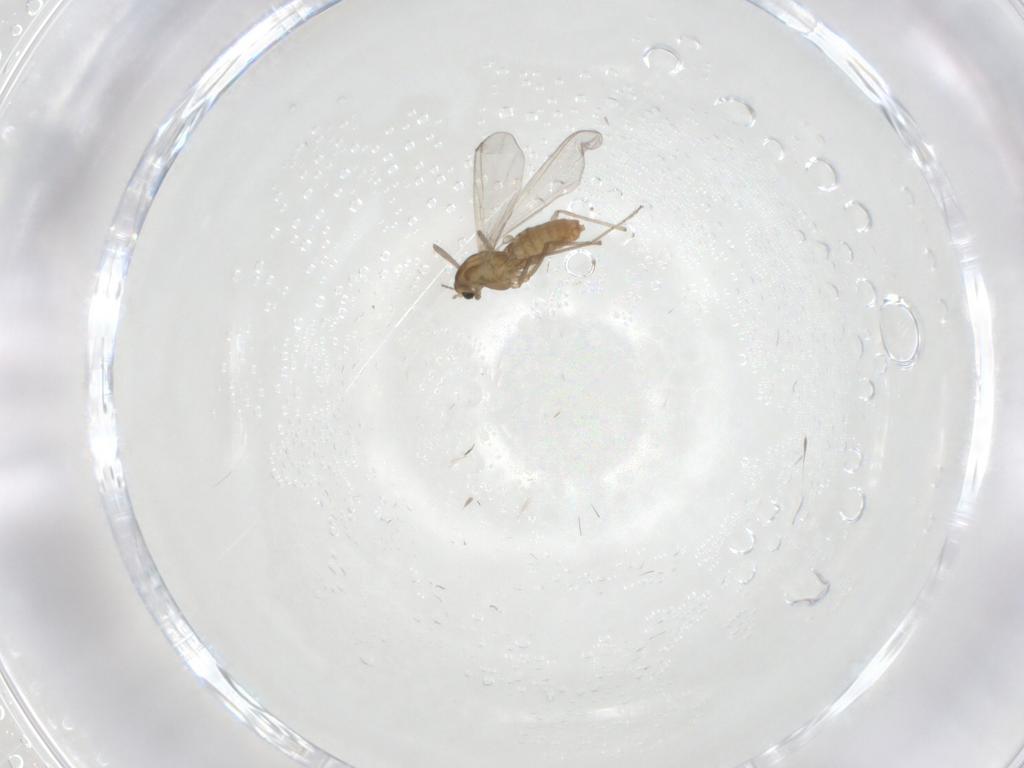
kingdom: Animalia
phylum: Arthropoda
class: Insecta
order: Diptera
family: Chironomidae
